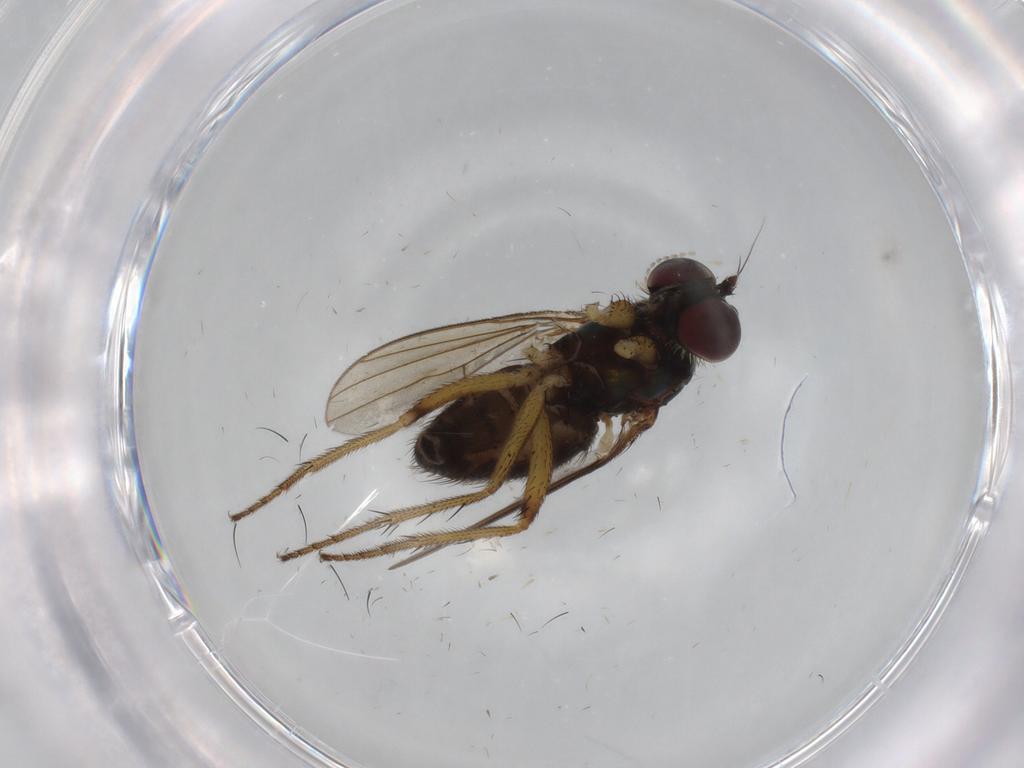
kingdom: Animalia
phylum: Arthropoda
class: Insecta
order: Diptera
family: Dolichopodidae
